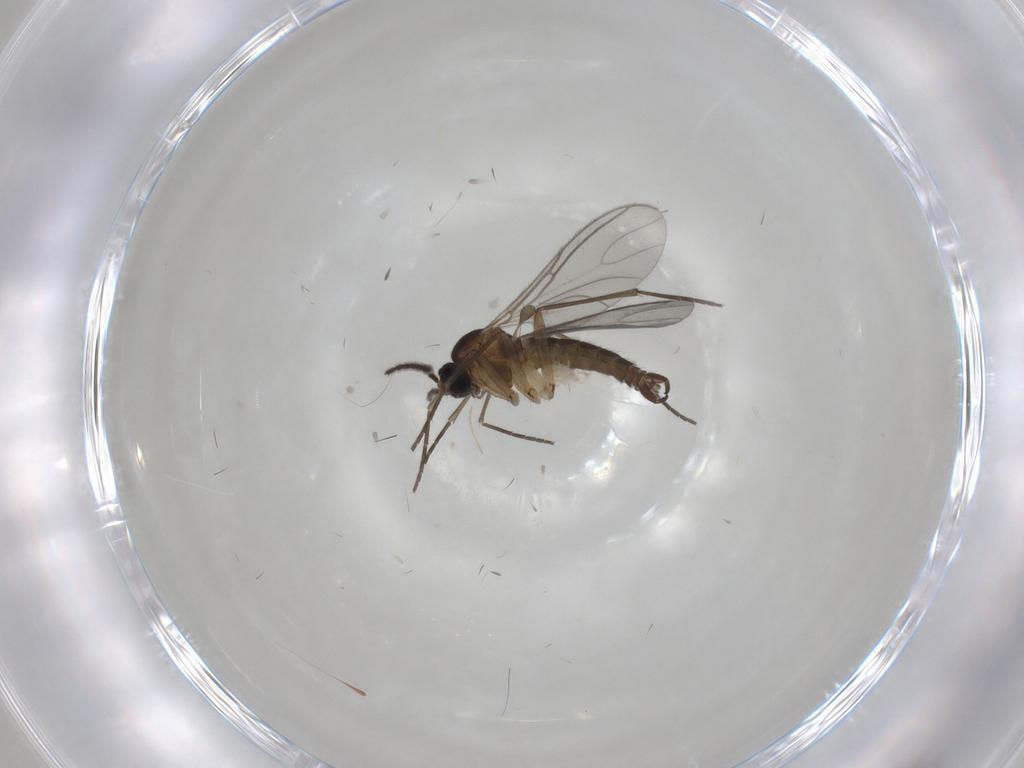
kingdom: Animalia
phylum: Arthropoda
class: Insecta
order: Diptera
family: Sciaridae
